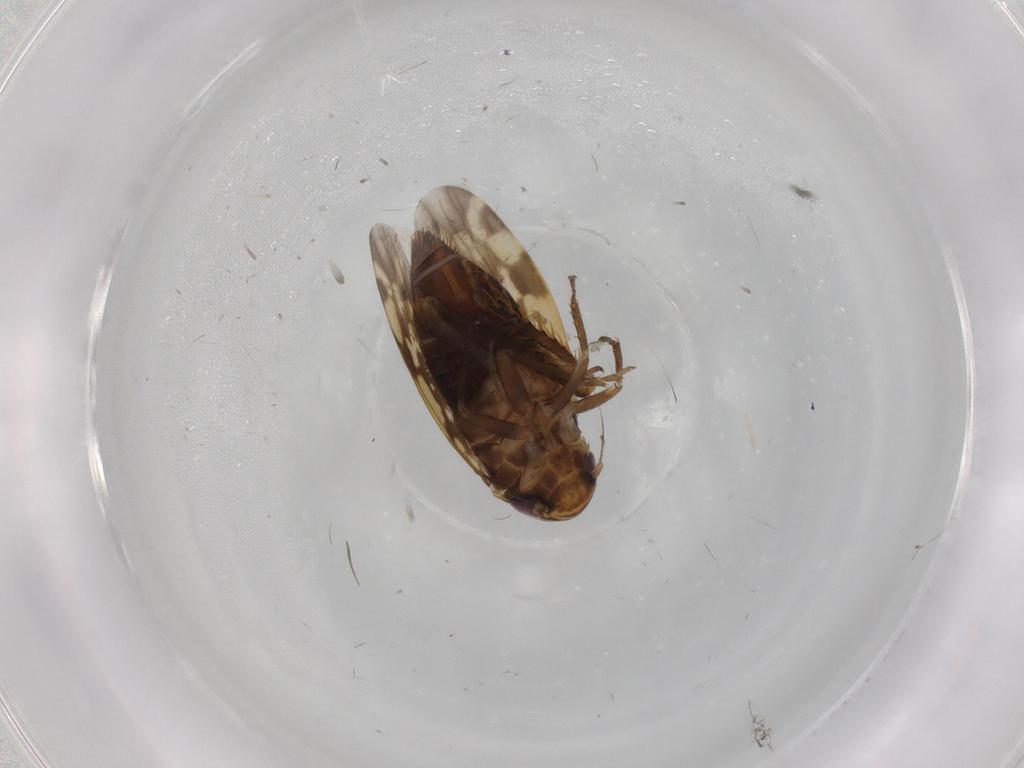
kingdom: Animalia
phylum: Arthropoda
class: Insecta
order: Hemiptera
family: Cicadellidae
